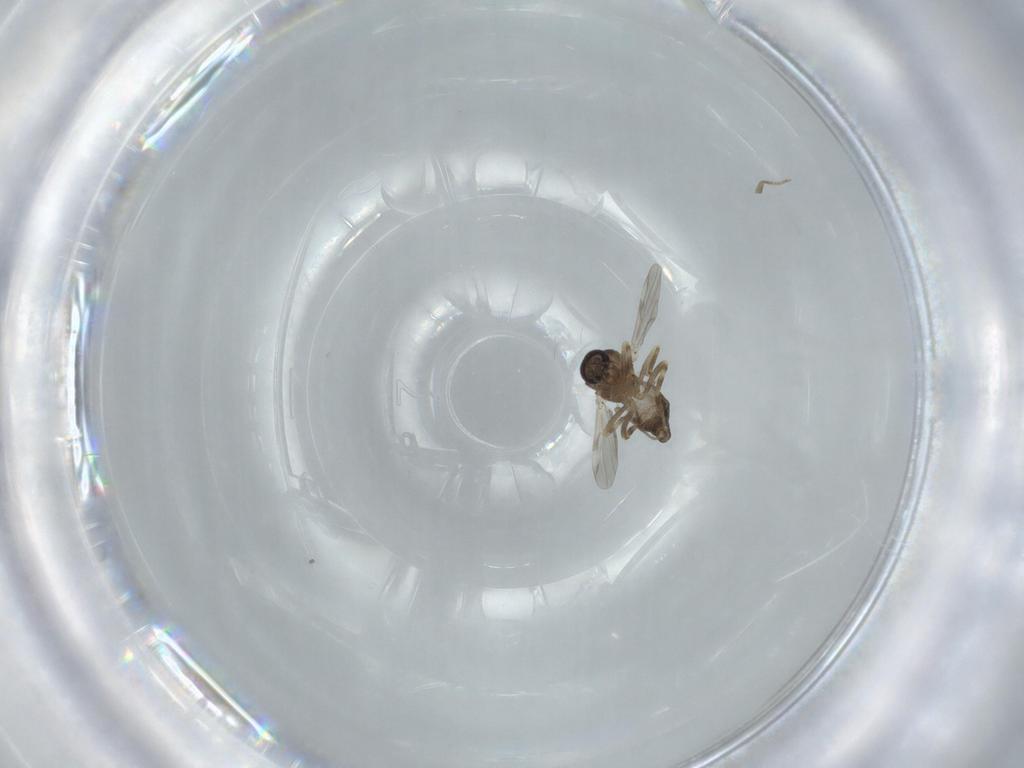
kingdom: Animalia
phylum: Arthropoda
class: Insecta
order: Diptera
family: Ceratopogonidae
